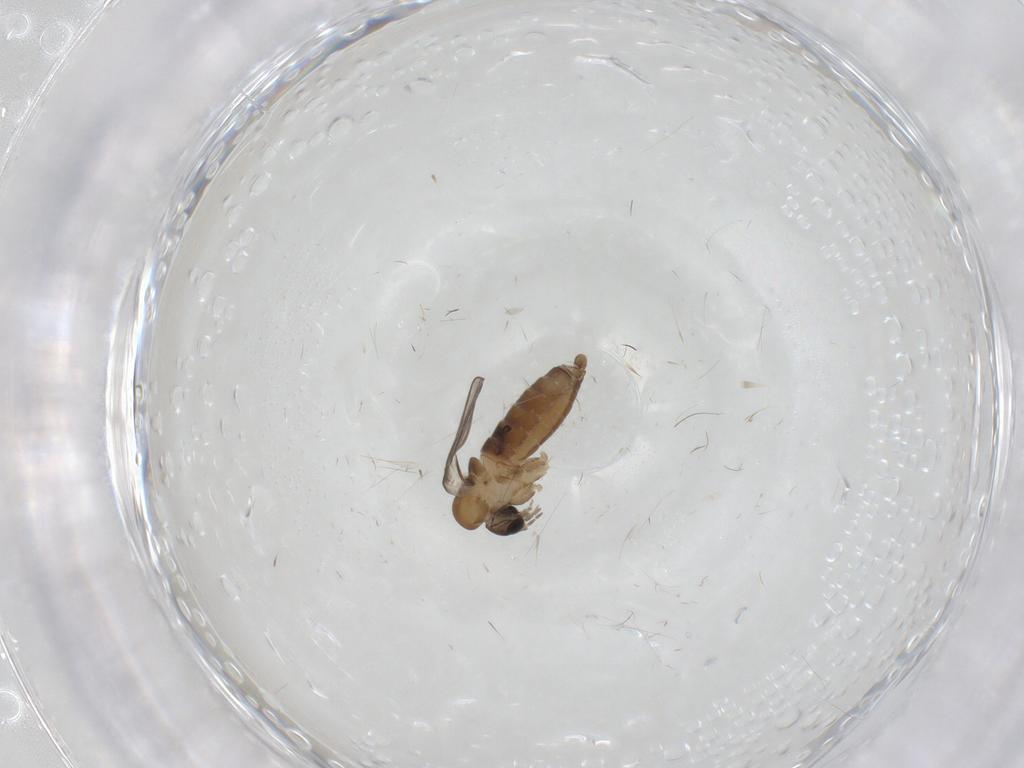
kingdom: Animalia
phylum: Arthropoda
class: Insecta
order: Diptera
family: Cecidomyiidae
